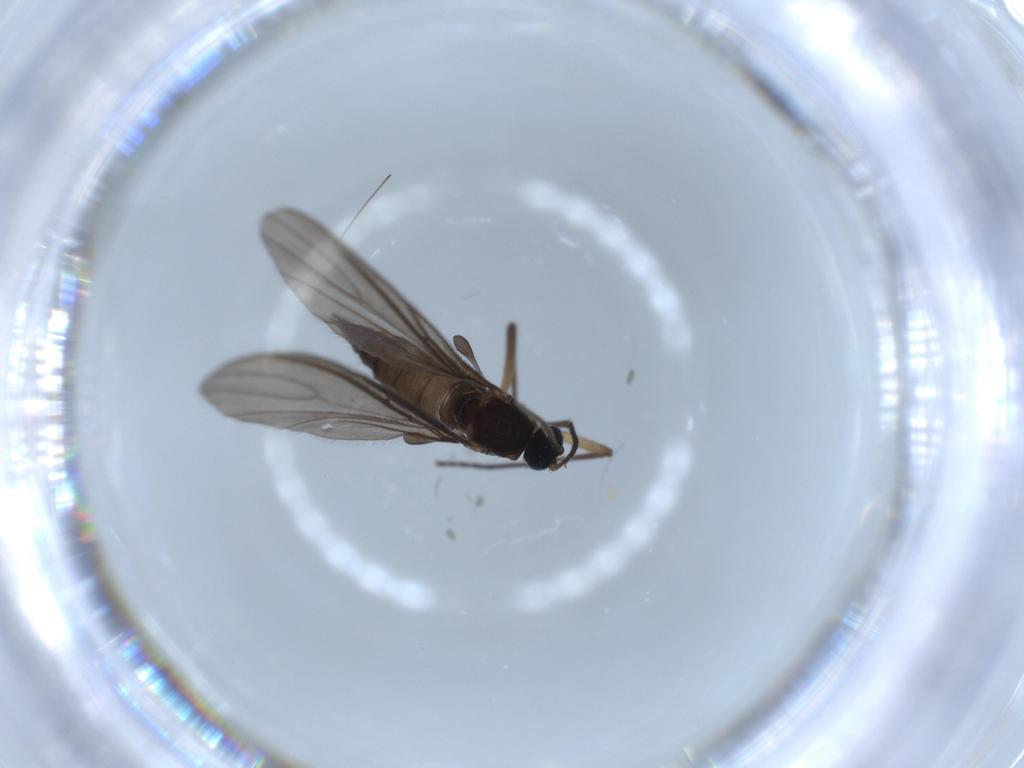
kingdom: Animalia
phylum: Arthropoda
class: Insecta
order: Diptera
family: Sciaridae
